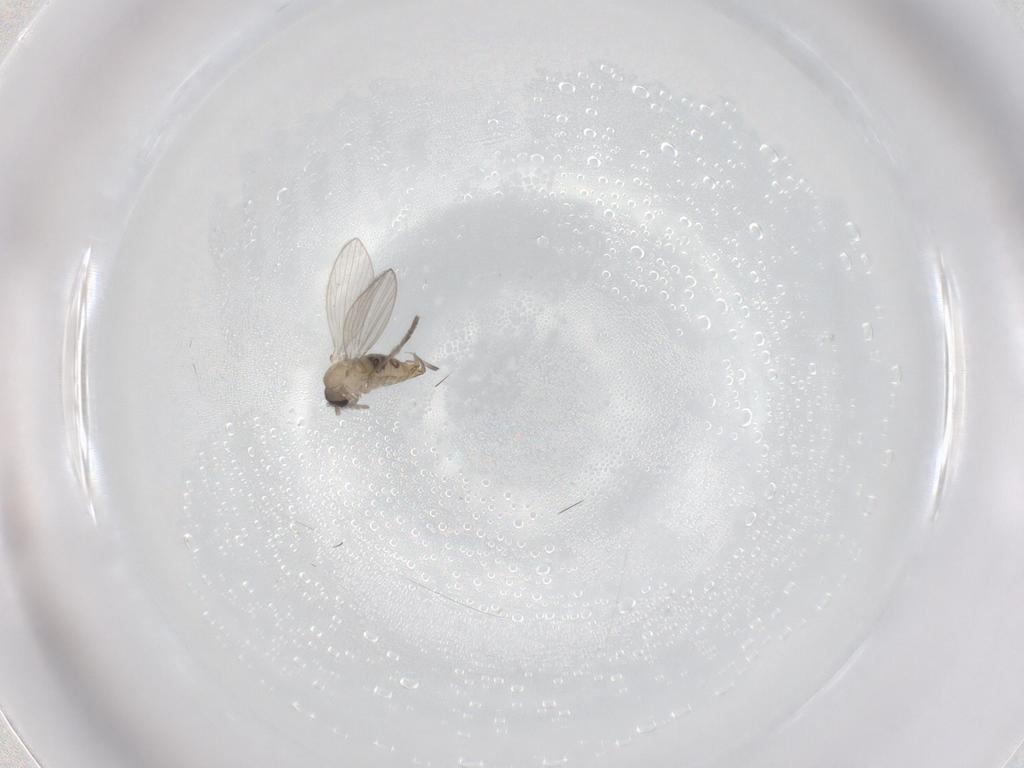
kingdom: Animalia
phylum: Arthropoda
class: Insecta
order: Diptera
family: Psychodidae
